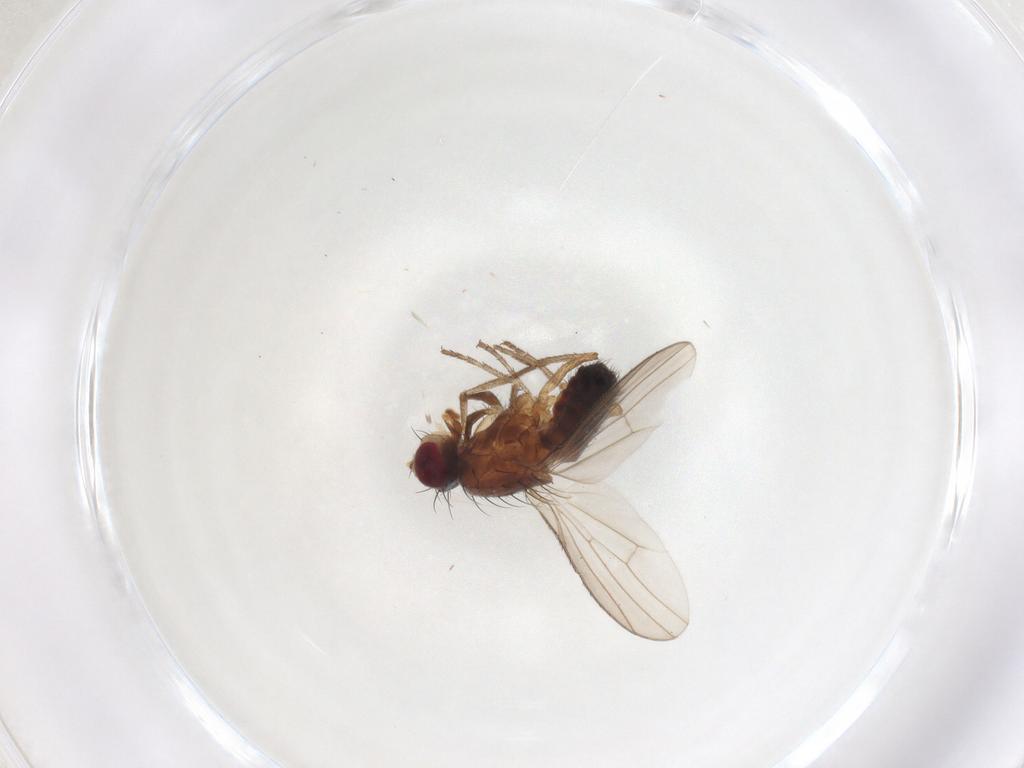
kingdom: Animalia
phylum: Arthropoda
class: Insecta
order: Diptera
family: Heleomyzidae
